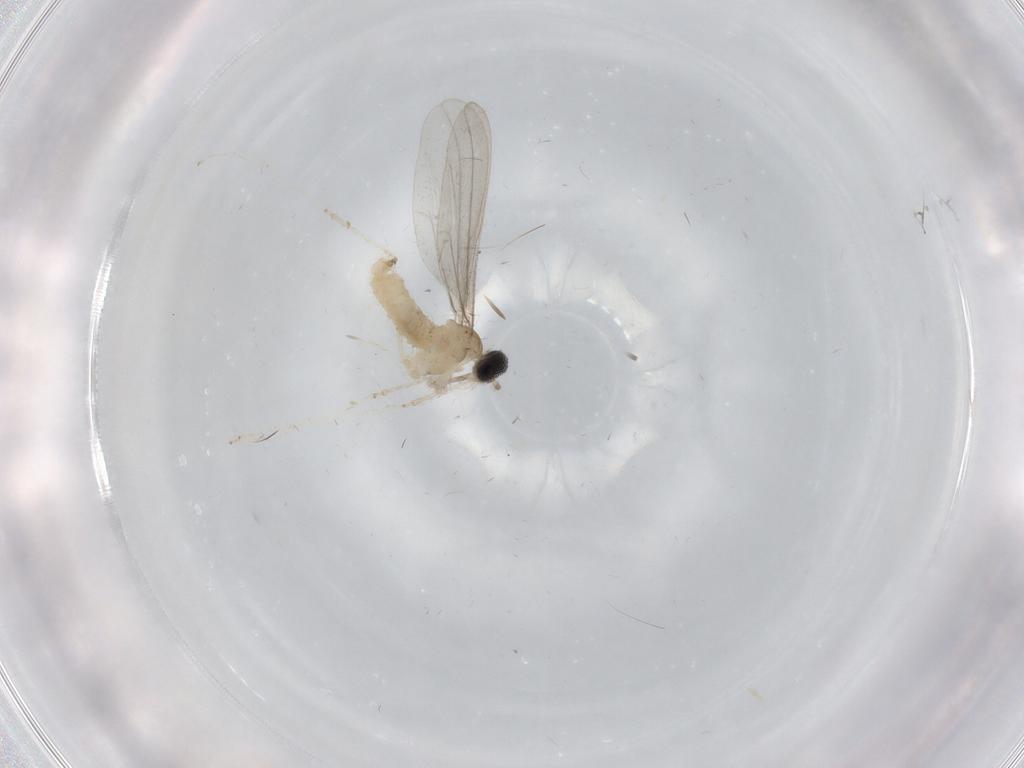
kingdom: Animalia
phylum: Arthropoda
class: Insecta
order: Diptera
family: Cecidomyiidae
